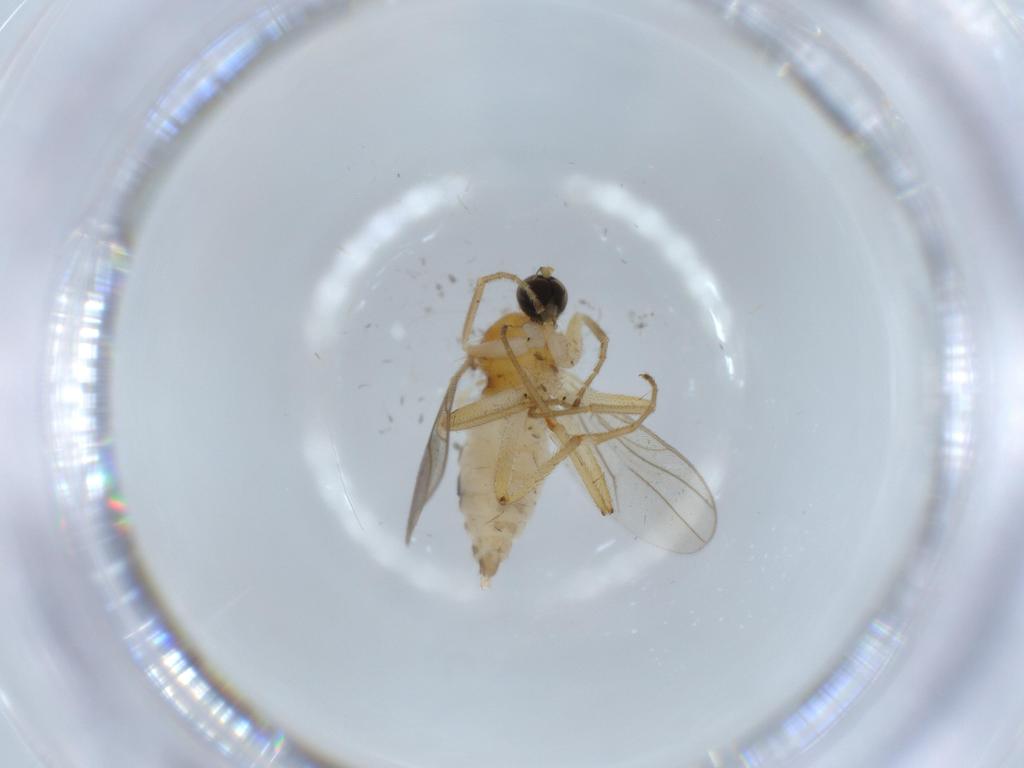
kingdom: Animalia
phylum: Arthropoda
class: Insecta
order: Diptera
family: Hybotidae
